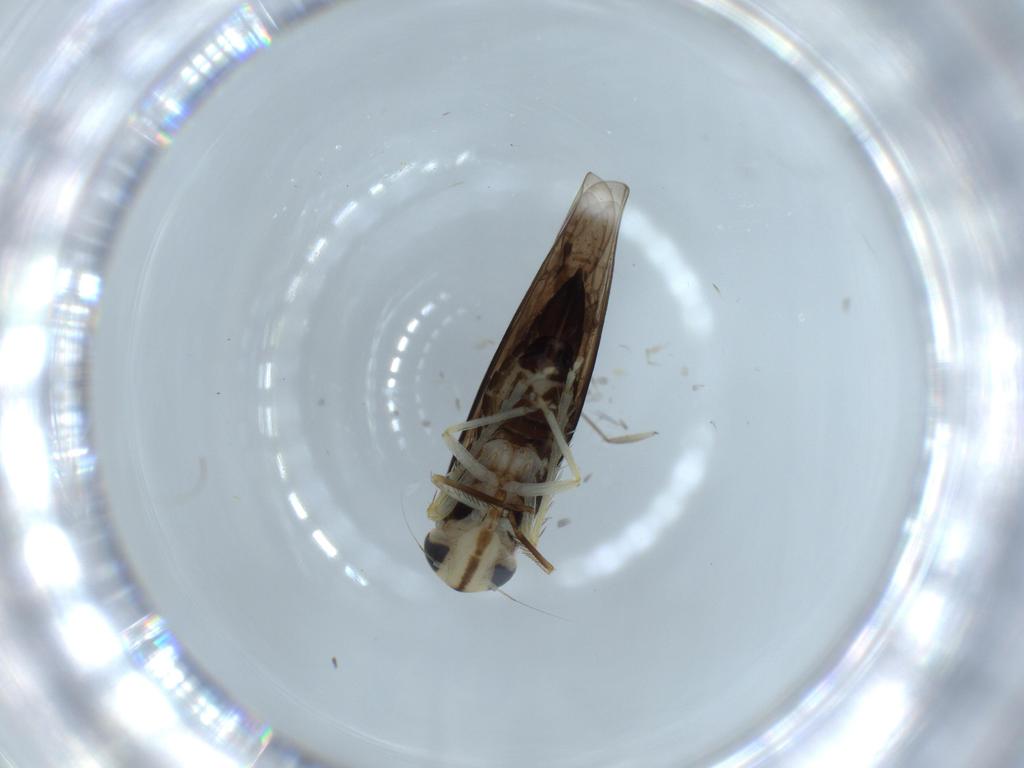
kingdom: Animalia
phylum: Arthropoda
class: Insecta
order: Hemiptera
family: Cicadellidae
